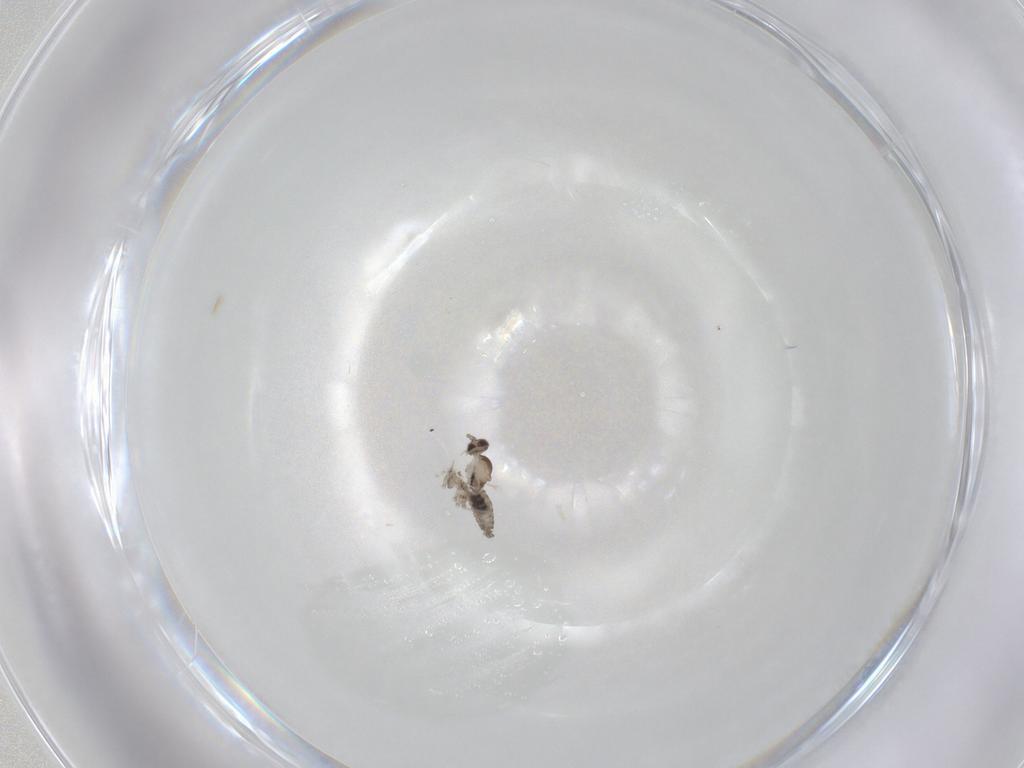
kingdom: Animalia
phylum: Arthropoda
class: Insecta
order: Diptera
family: Cecidomyiidae
